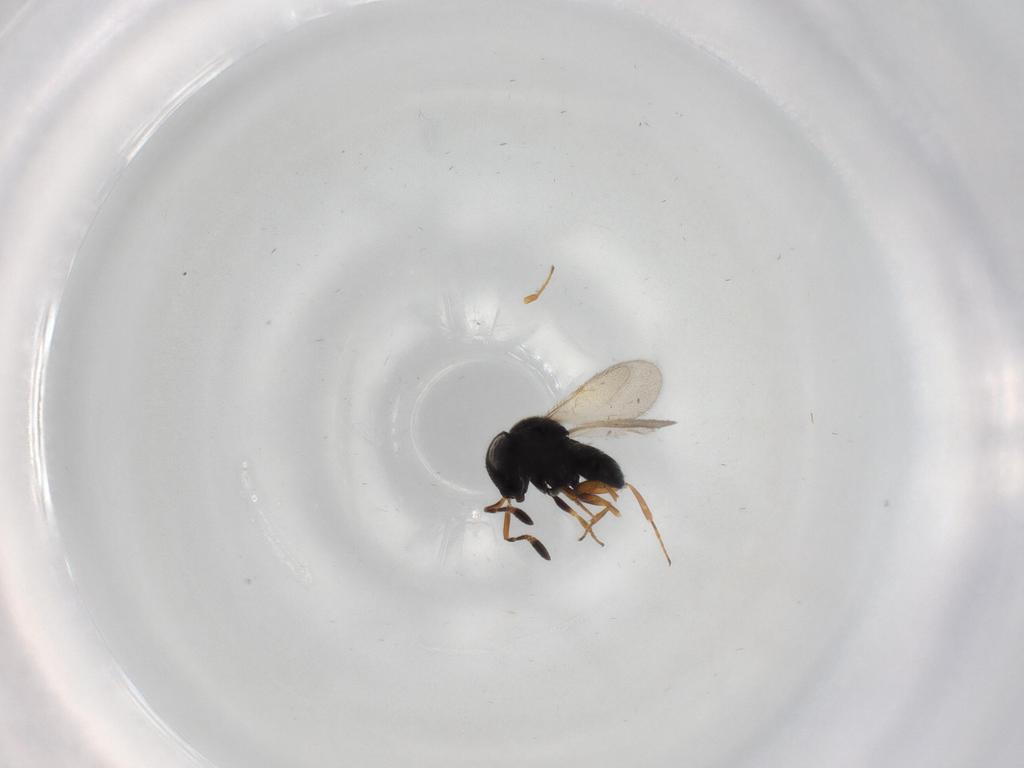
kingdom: Animalia
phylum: Arthropoda
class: Insecta
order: Hymenoptera
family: Scelionidae
